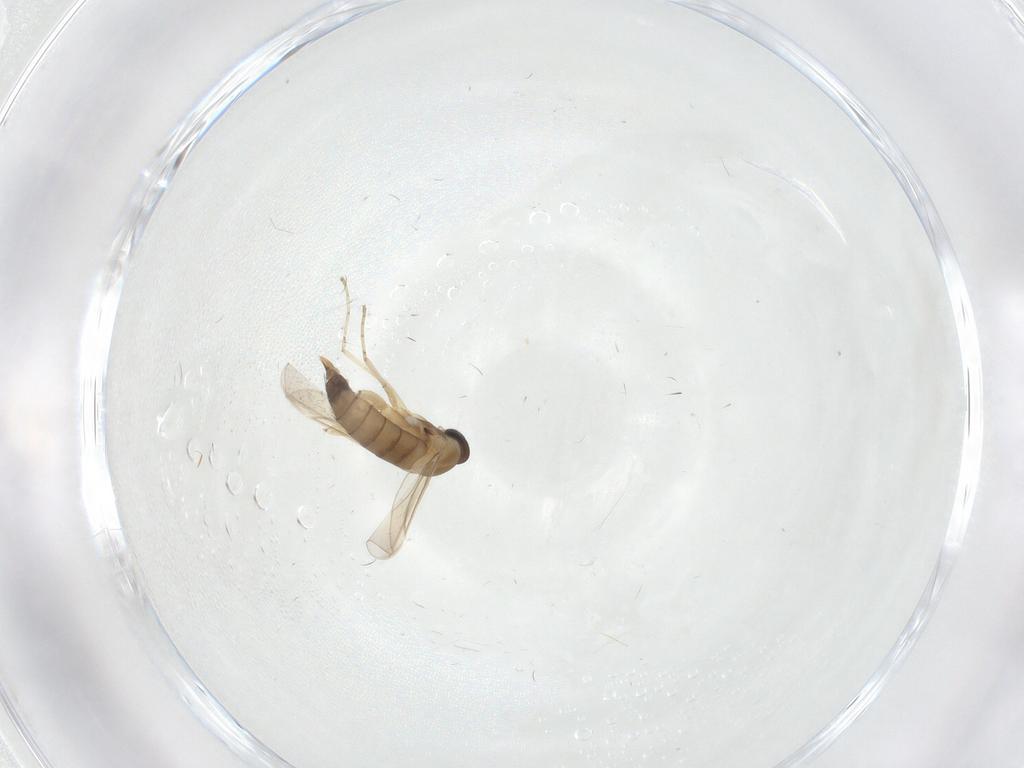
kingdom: Animalia
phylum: Arthropoda
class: Insecta
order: Diptera
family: Cecidomyiidae
